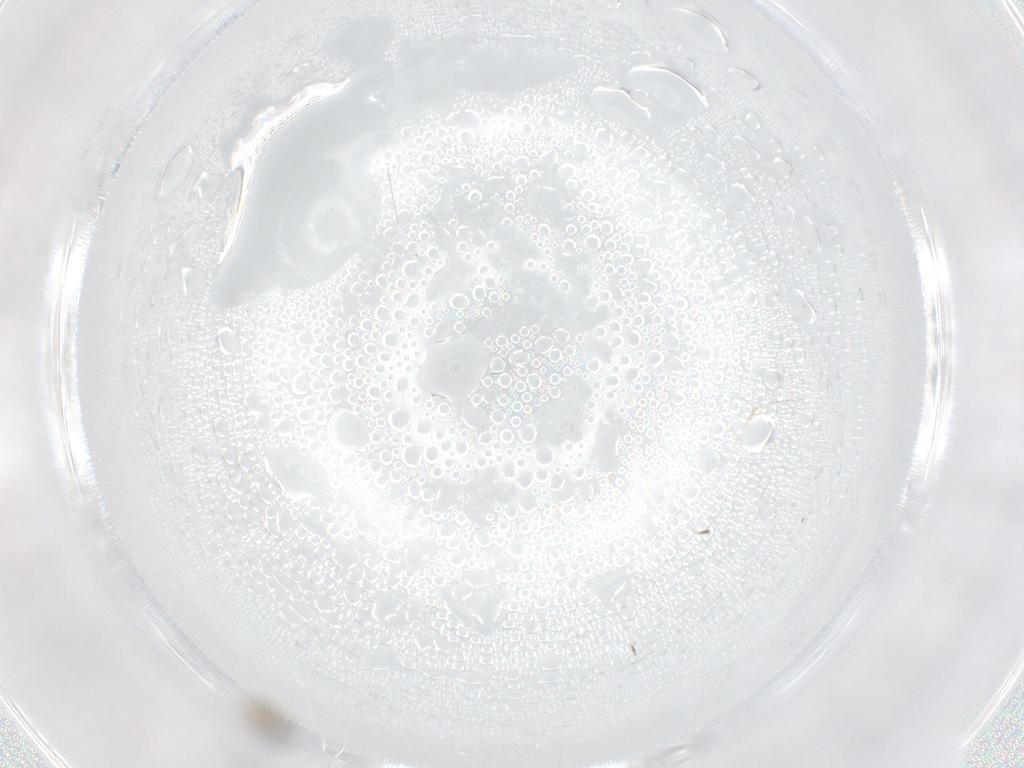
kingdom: Animalia
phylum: Arthropoda
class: Insecta
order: Diptera
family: Cecidomyiidae
